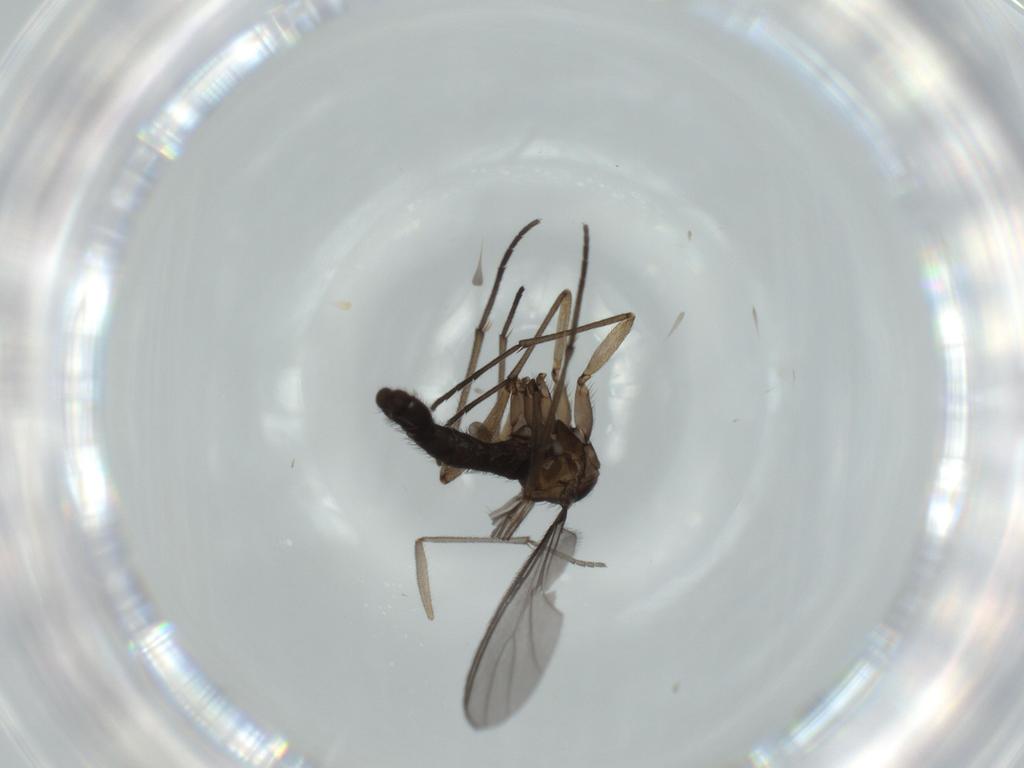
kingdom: Animalia
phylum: Arthropoda
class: Insecta
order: Diptera
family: Sciaridae
